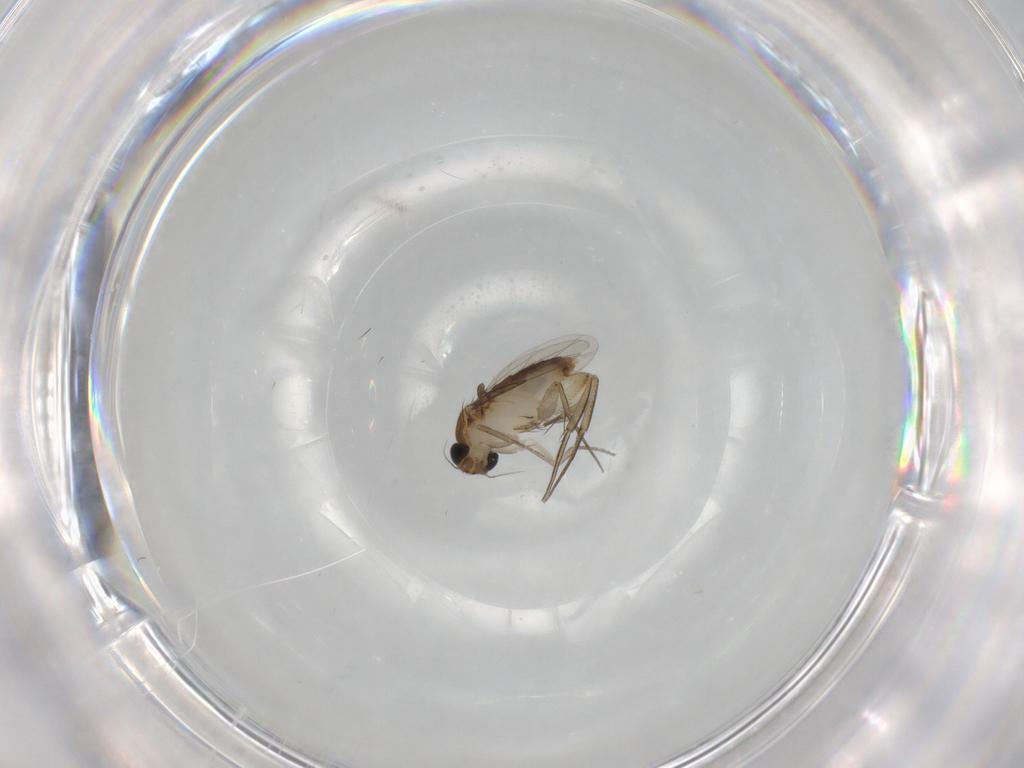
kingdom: Animalia
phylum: Arthropoda
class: Insecta
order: Diptera
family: Phoridae
